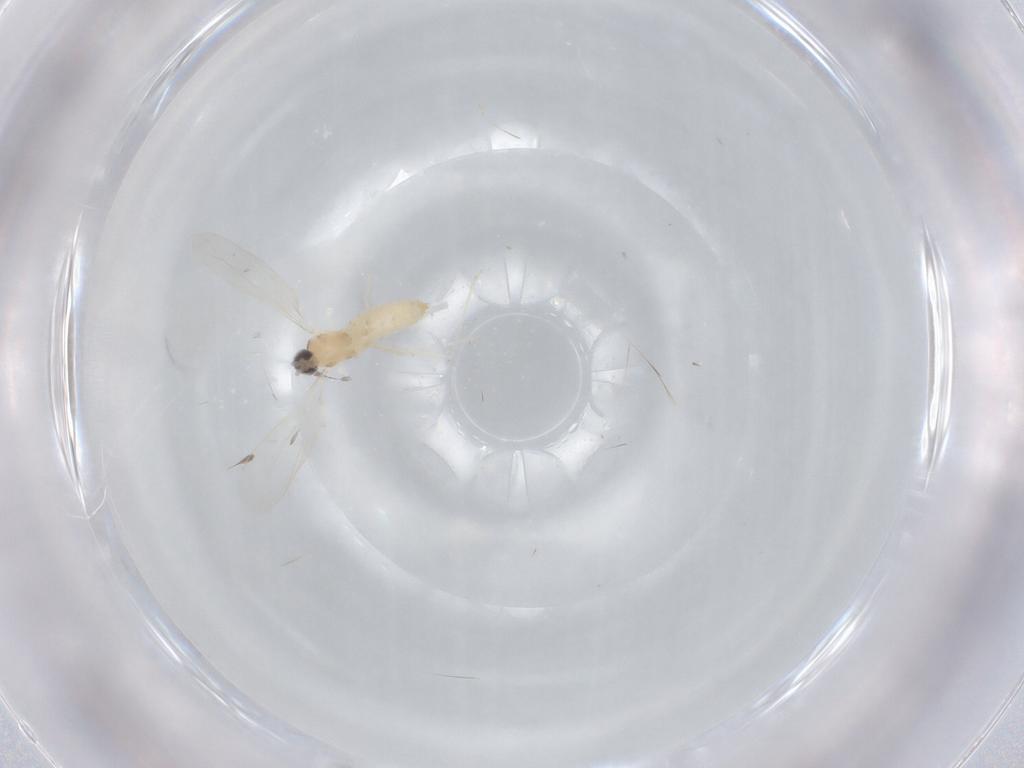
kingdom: Animalia
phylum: Arthropoda
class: Insecta
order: Diptera
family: Cecidomyiidae
